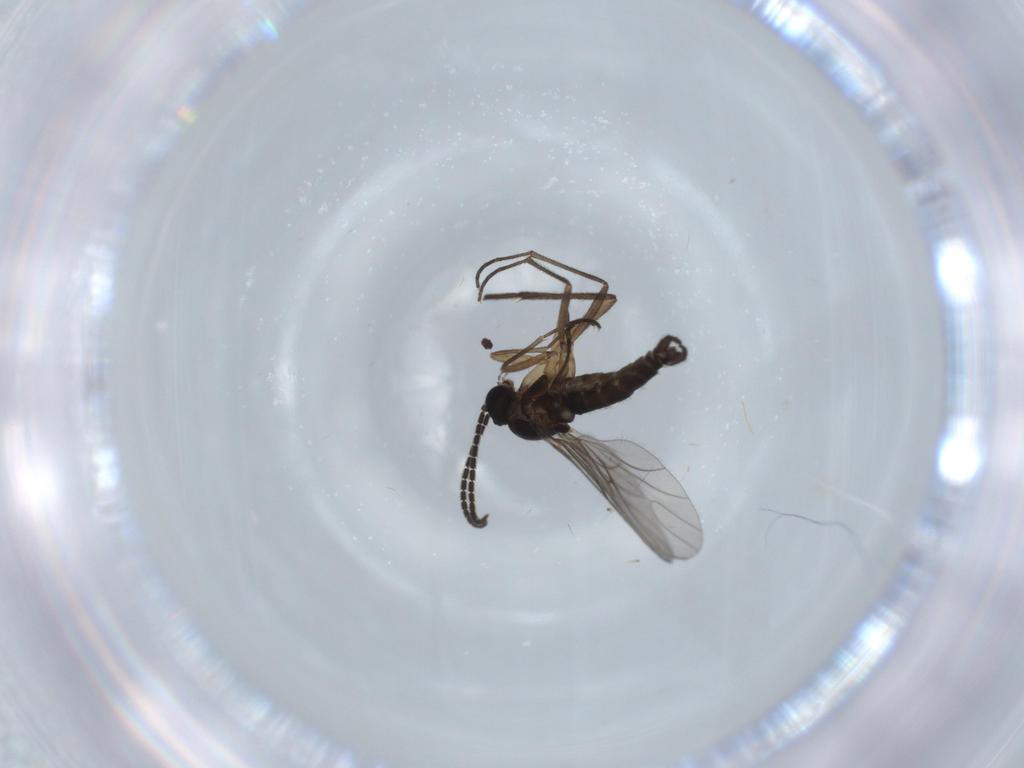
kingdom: Animalia
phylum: Arthropoda
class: Insecta
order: Diptera
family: Sciaridae
